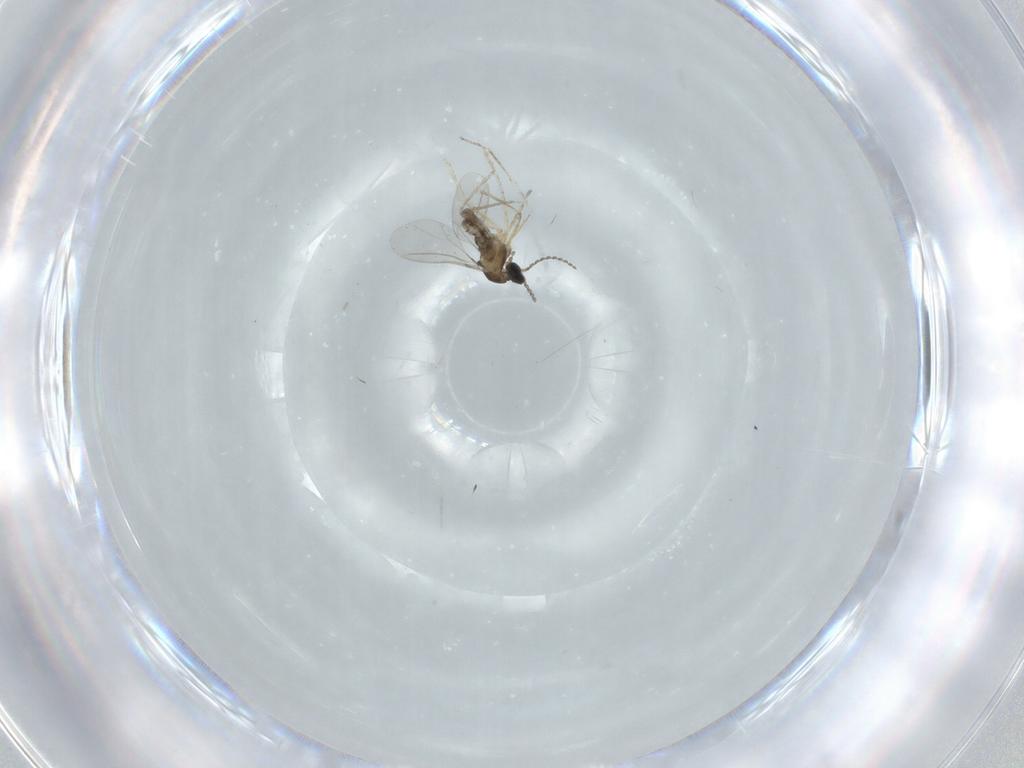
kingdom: Animalia
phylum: Arthropoda
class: Insecta
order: Diptera
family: Cecidomyiidae
